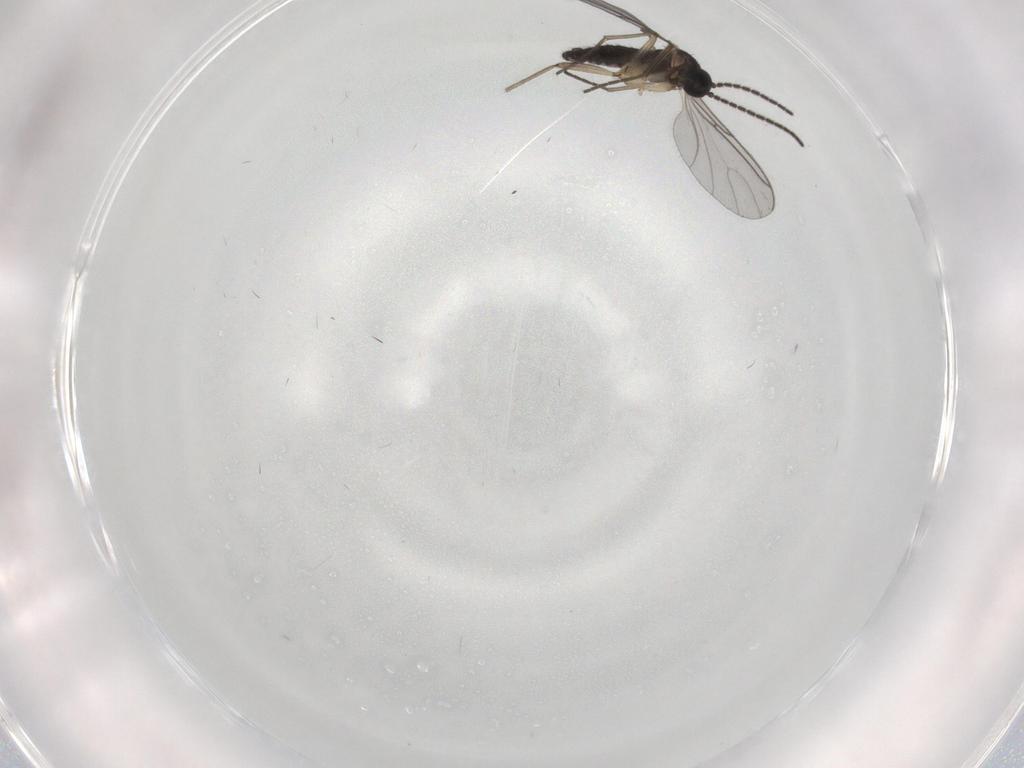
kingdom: Animalia
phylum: Arthropoda
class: Insecta
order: Diptera
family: Sciaridae
